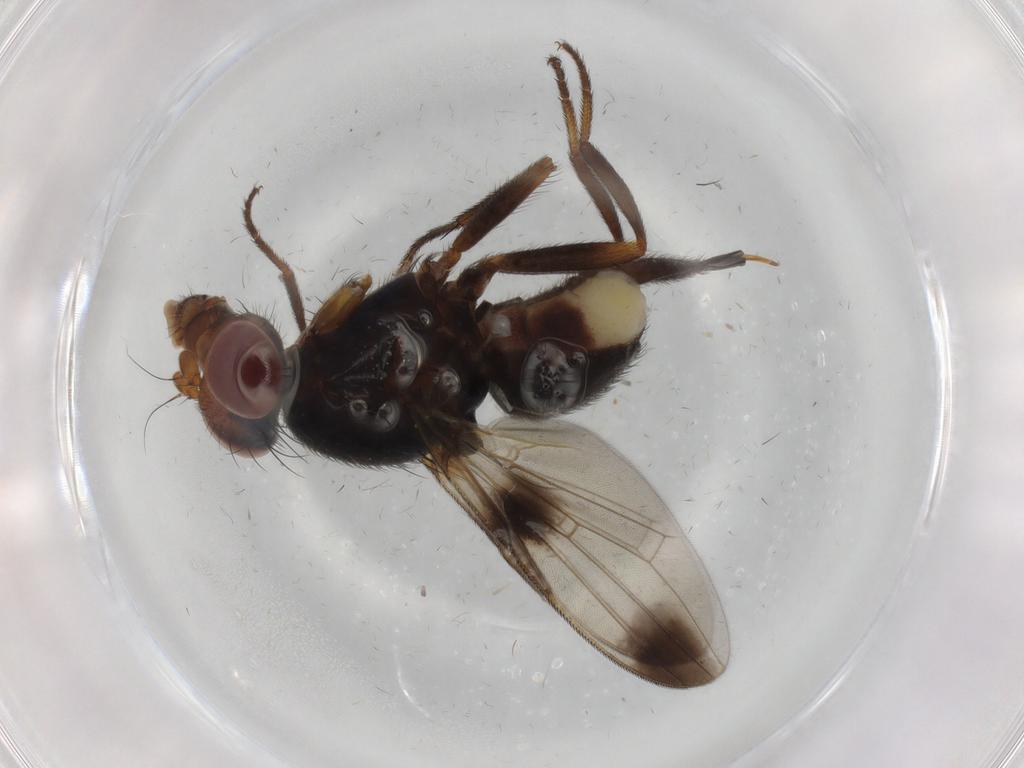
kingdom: Animalia
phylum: Arthropoda
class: Insecta
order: Diptera
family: Ulidiidae
